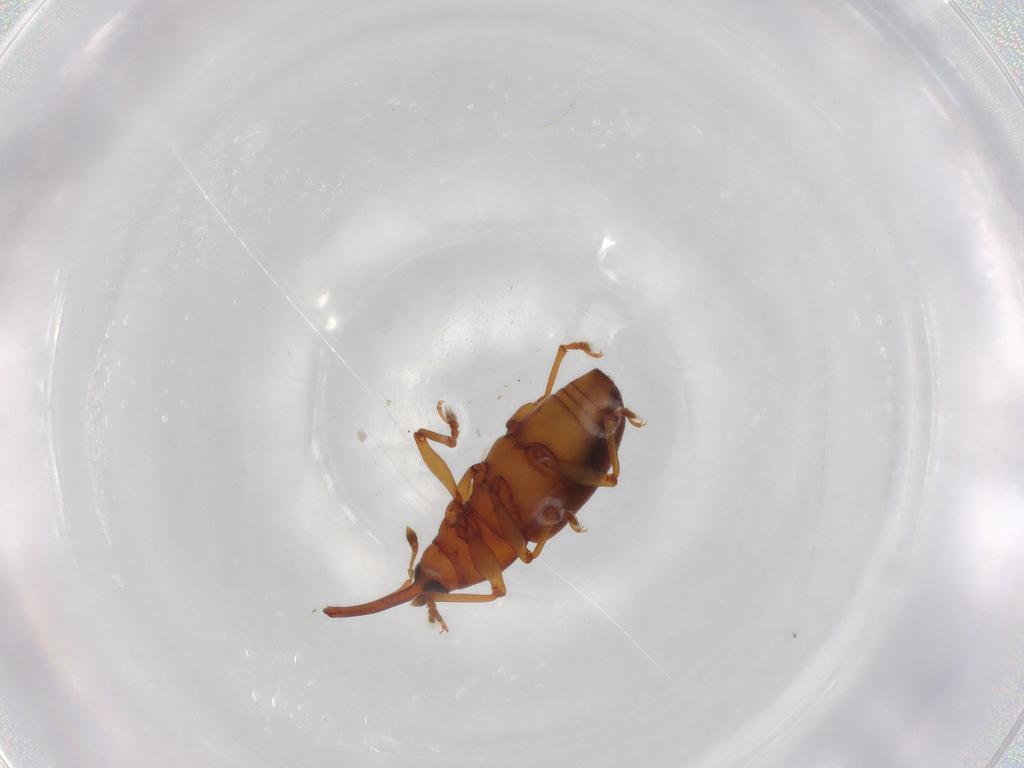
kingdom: Animalia
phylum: Arthropoda
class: Insecta
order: Coleoptera
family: Curculionidae
